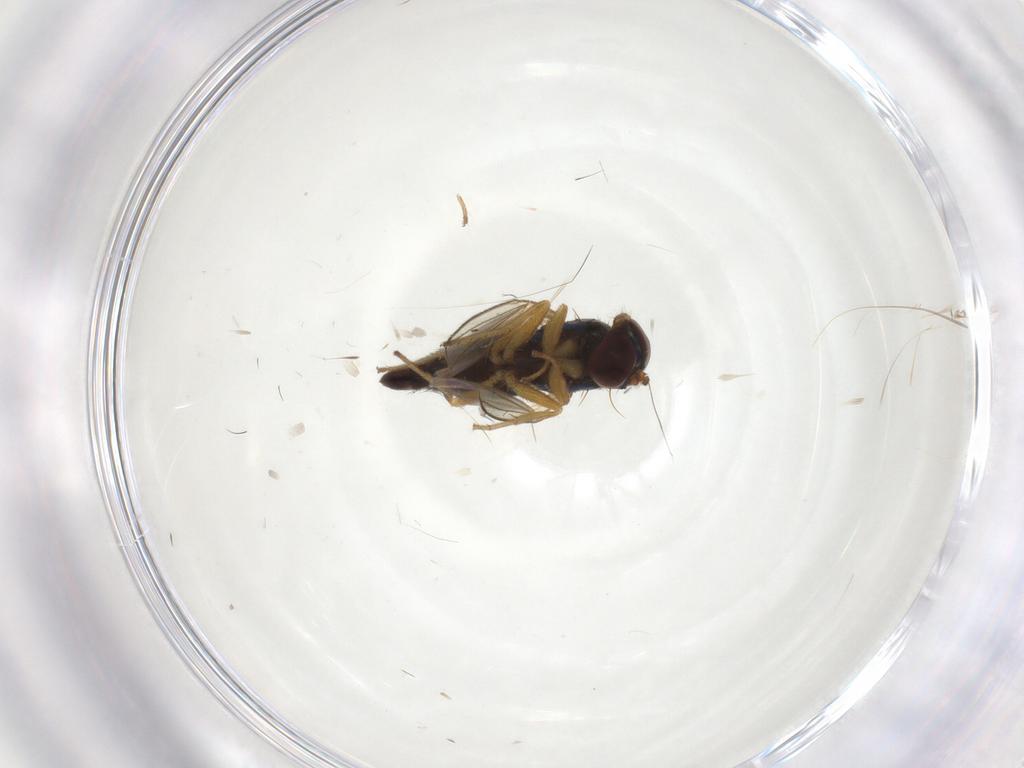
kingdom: Animalia
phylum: Arthropoda
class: Insecta
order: Diptera
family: Dolichopodidae
